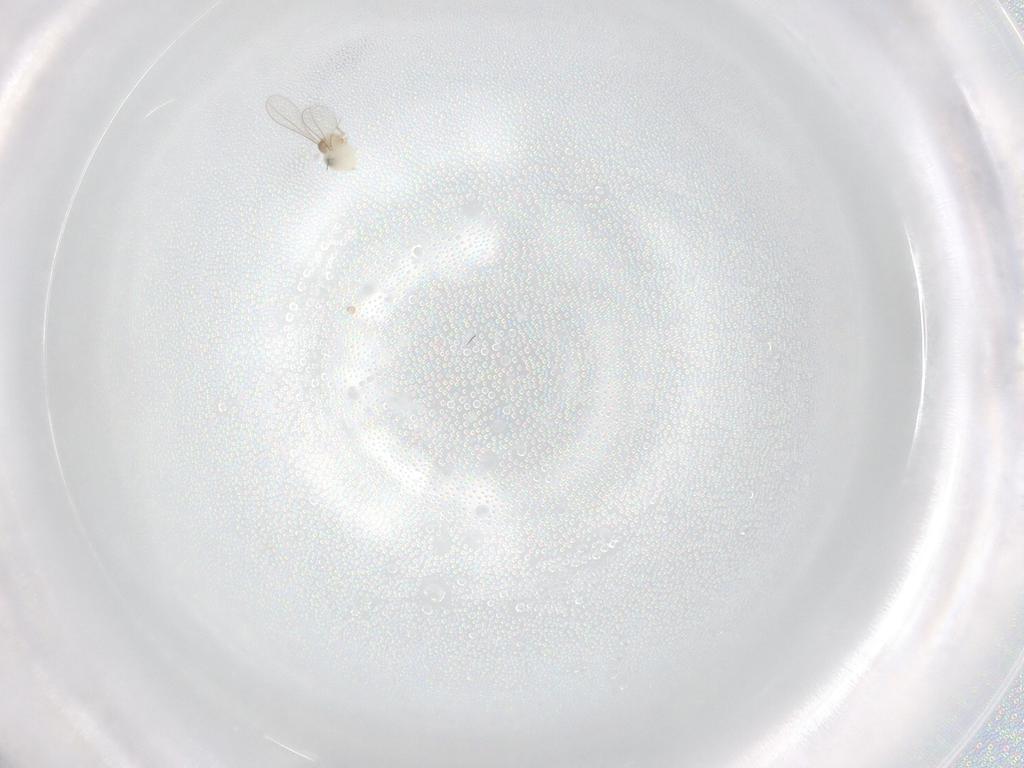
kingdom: Animalia
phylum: Arthropoda
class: Insecta
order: Diptera
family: Cecidomyiidae
